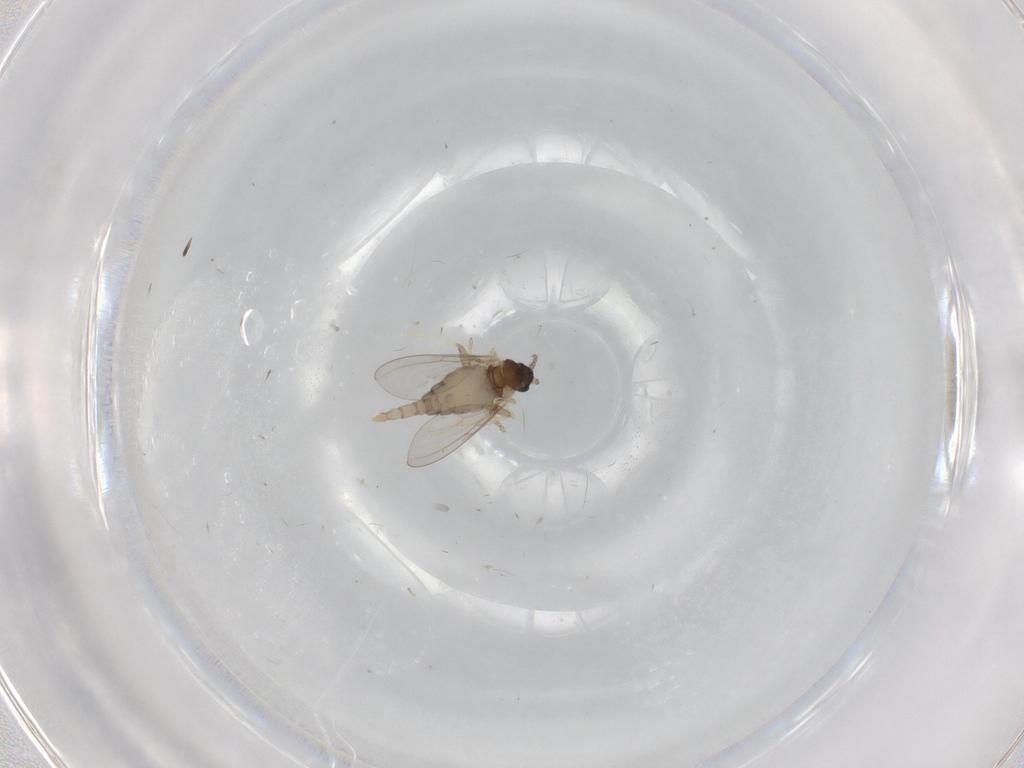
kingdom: Animalia
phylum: Arthropoda
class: Insecta
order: Diptera
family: Cecidomyiidae
